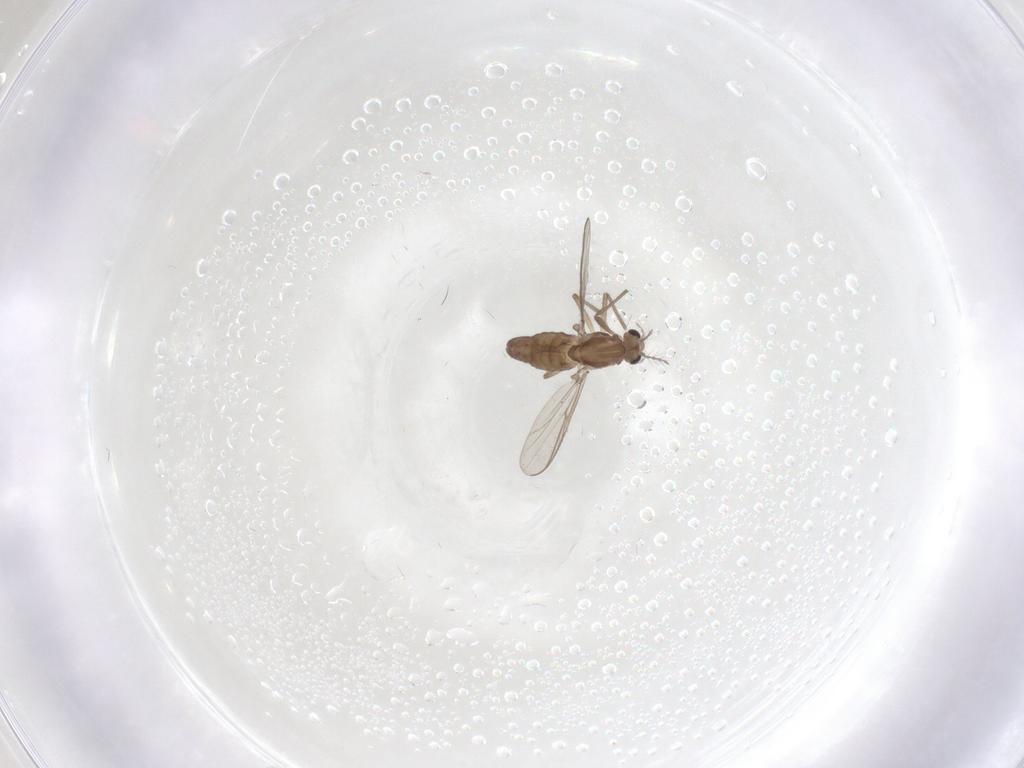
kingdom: Animalia
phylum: Arthropoda
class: Insecta
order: Diptera
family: Chironomidae
